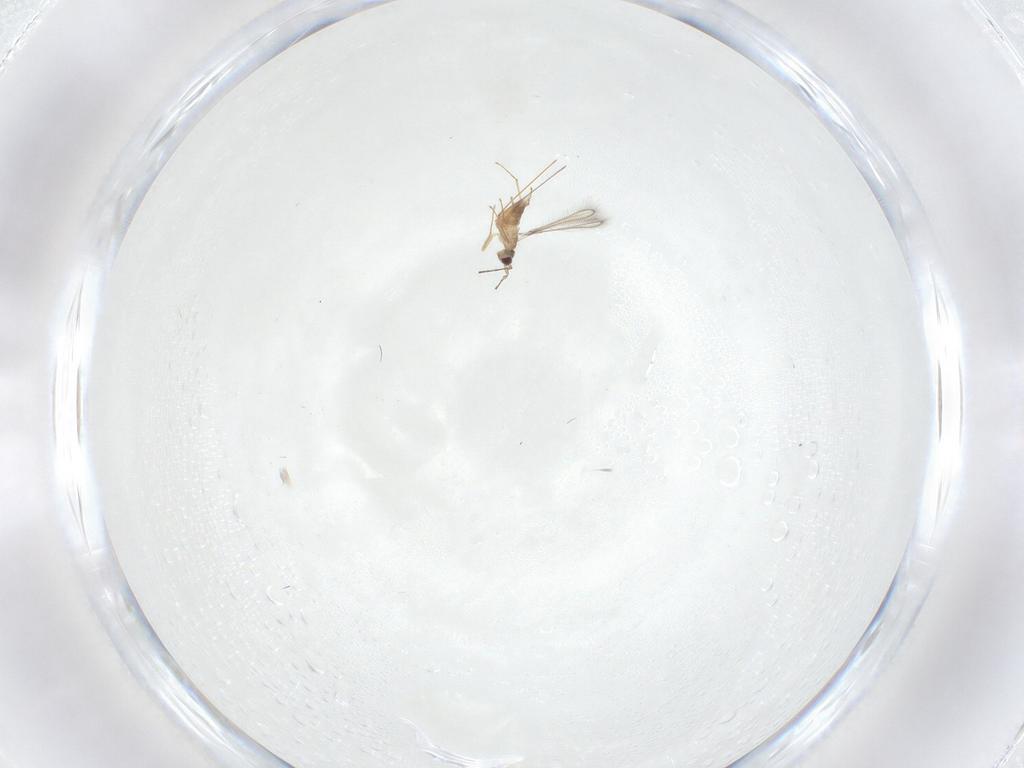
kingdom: Animalia
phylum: Arthropoda
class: Insecta
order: Hymenoptera
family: Mymaridae
